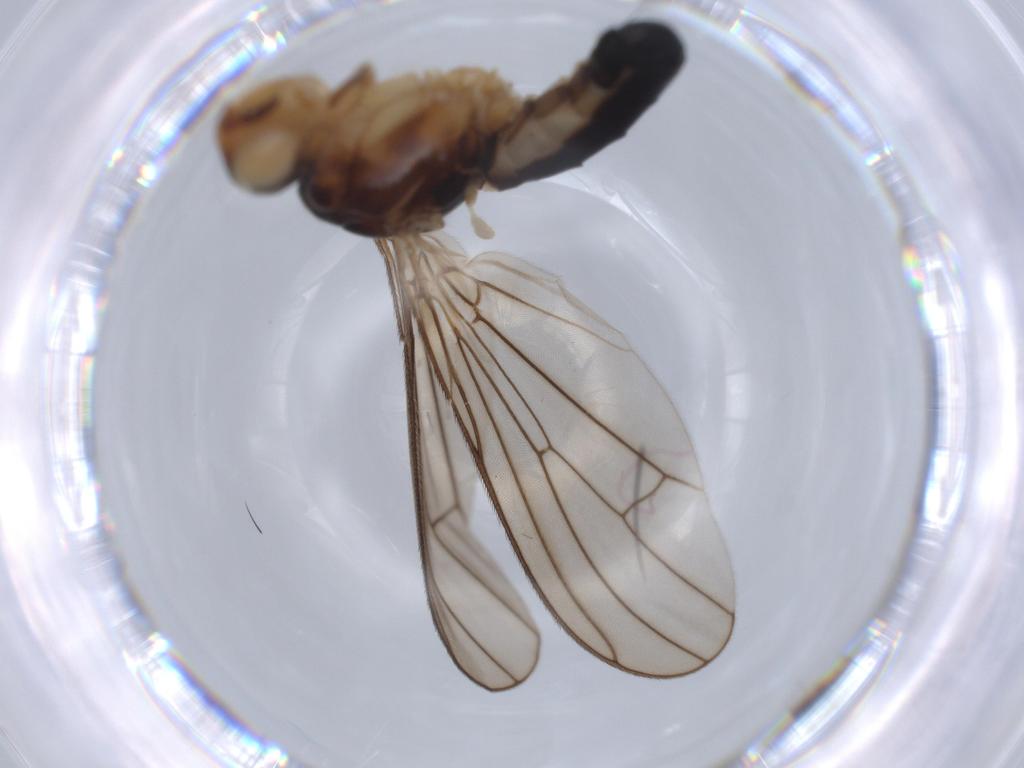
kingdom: Animalia
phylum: Arthropoda
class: Insecta
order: Diptera
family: Scathophagidae
